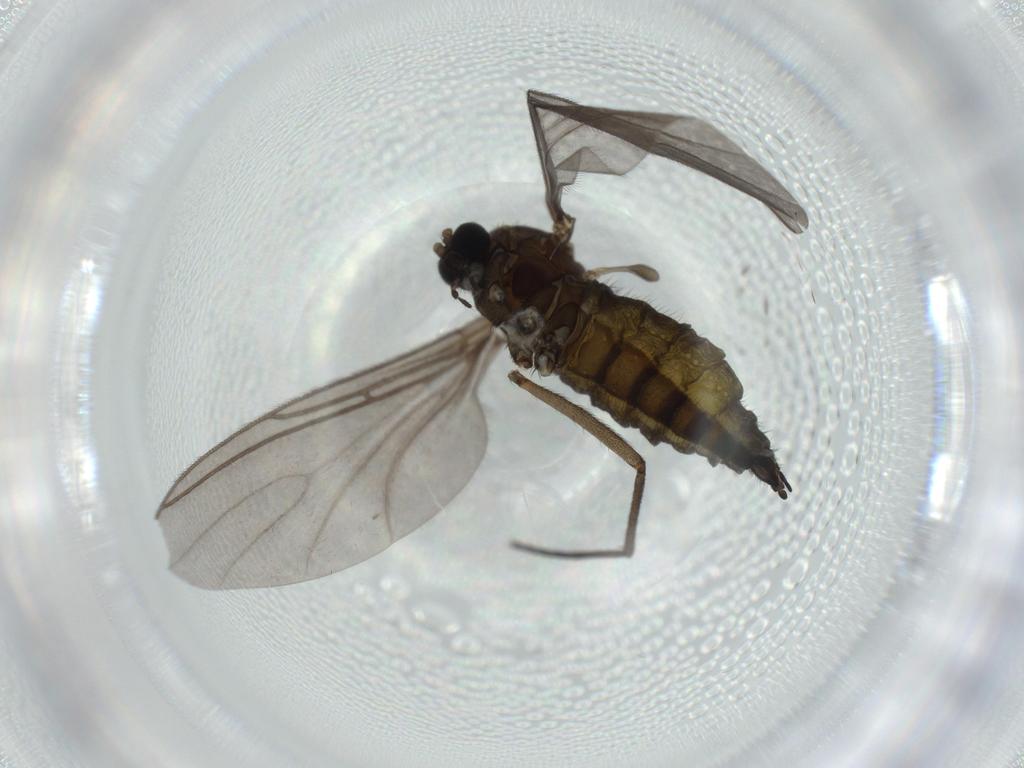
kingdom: Animalia
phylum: Arthropoda
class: Insecta
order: Diptera
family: Sciaridae
